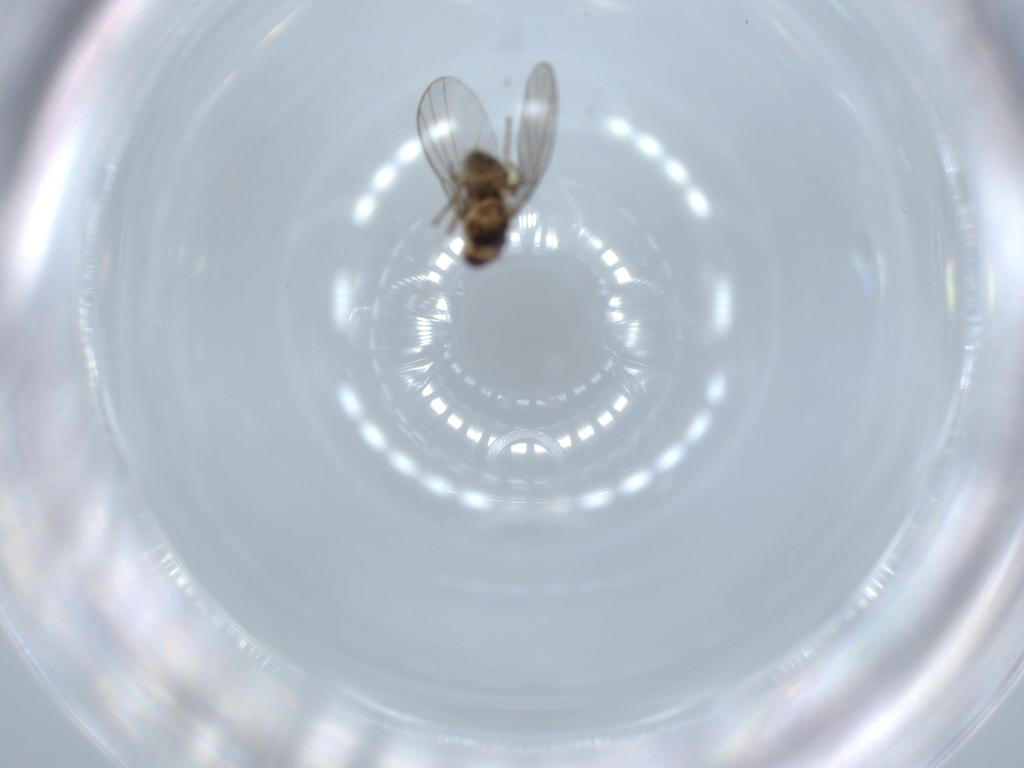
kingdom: Animalia
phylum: Arthropoda
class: Insecta
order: Diptera
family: Agromyzidae
